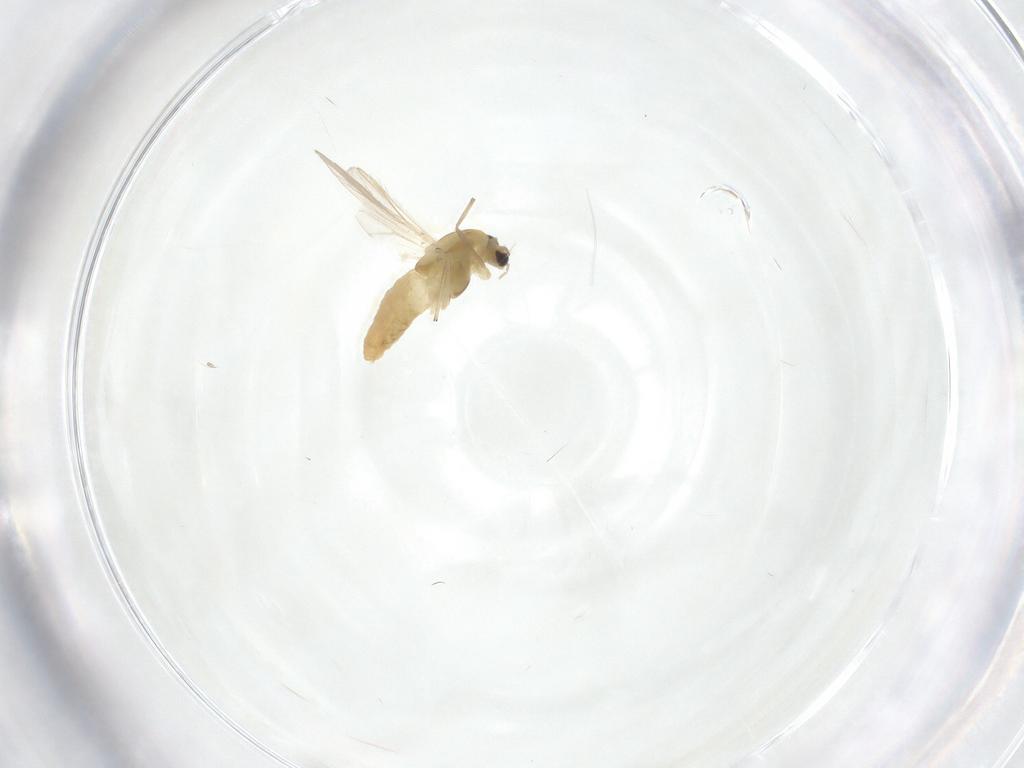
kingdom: Animalia
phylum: Arthropoda
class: Insecta
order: Diptera
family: Chironomidae
